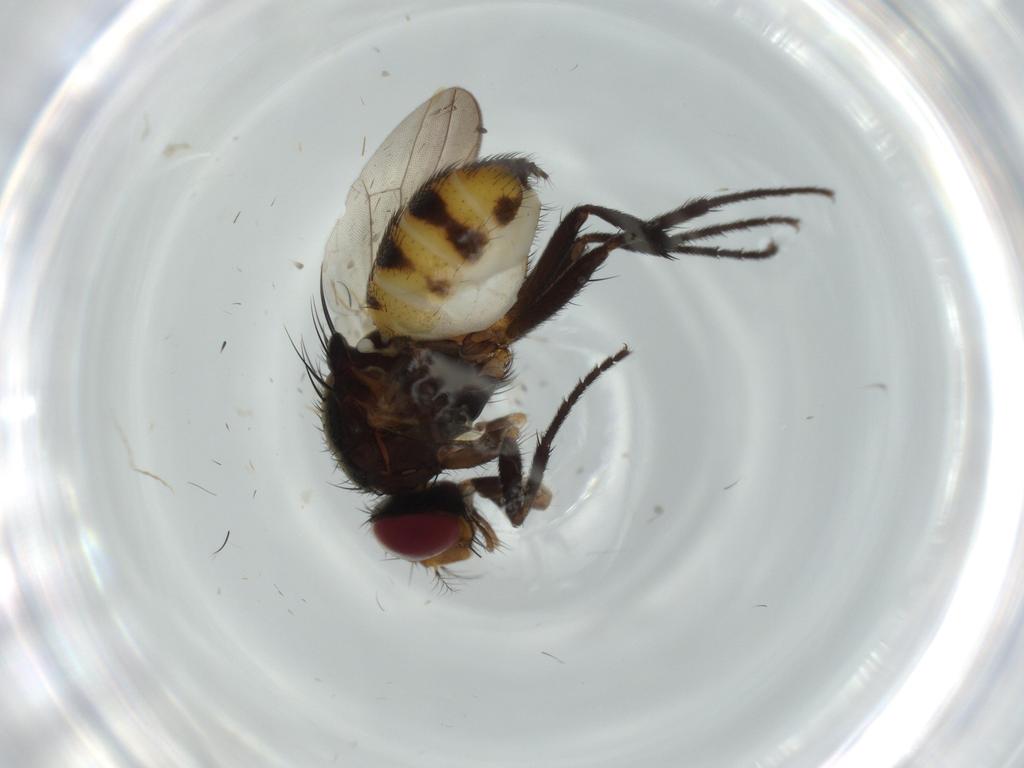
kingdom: Animalia
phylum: Arthropoda
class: Insecta
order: Diptera
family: Anthomyiidae
